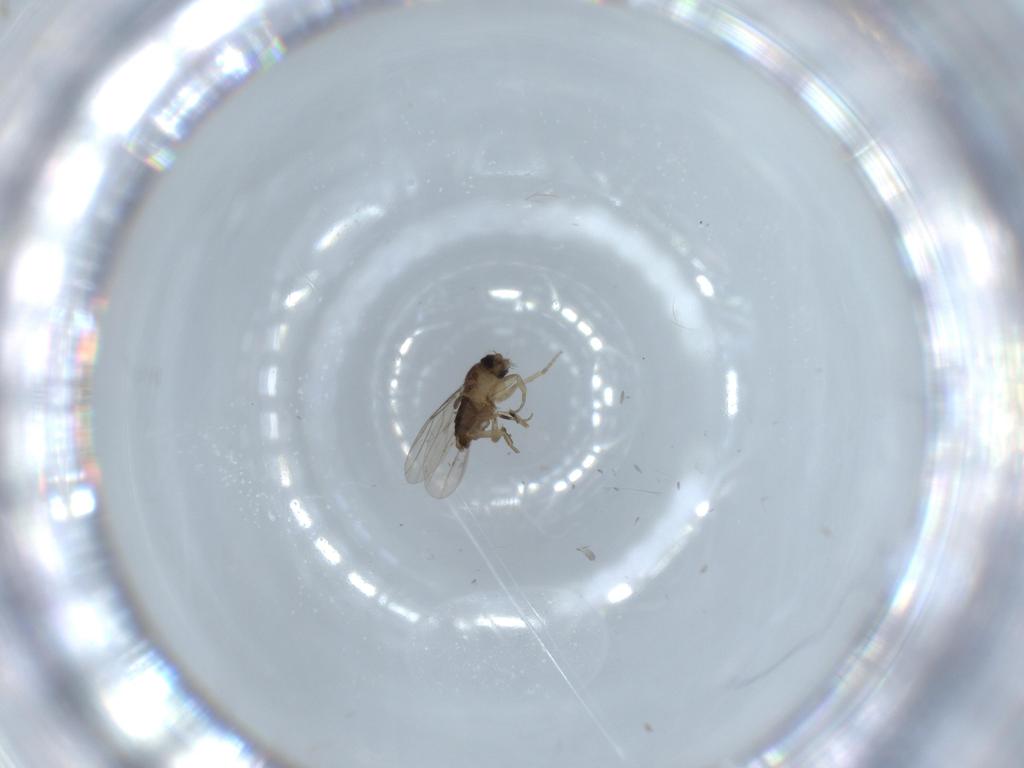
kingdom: Animalia
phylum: Arthropoda
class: Insecta
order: Diptera
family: Phoridae
